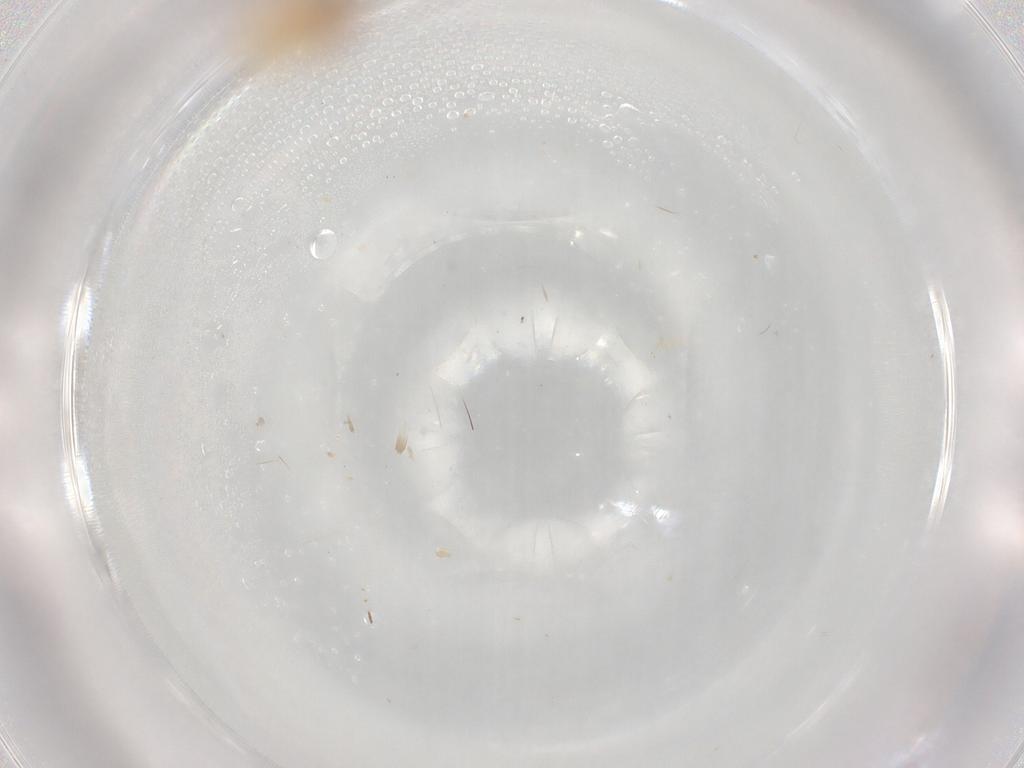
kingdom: Animalia
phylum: Arthropoda
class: Insecta
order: Neuroptera
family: Coniopterygidae
